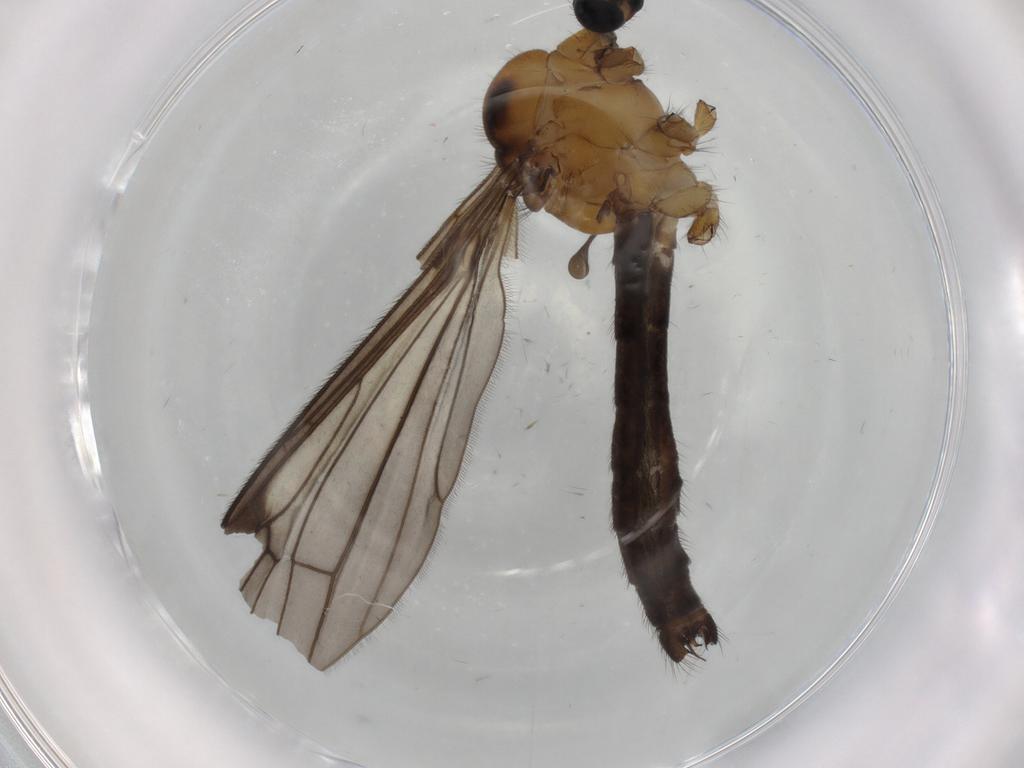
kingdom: Animalia
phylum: Arthropoda
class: Insecta
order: Diptera
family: Limoniidae
